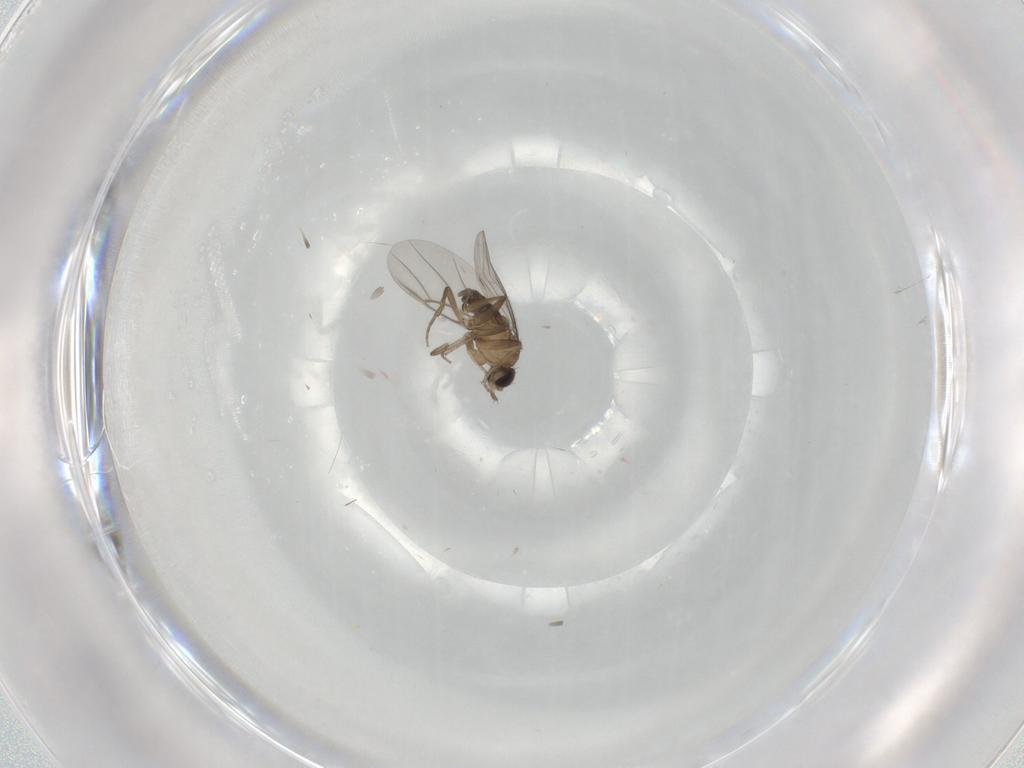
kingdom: Animalia
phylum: Arthropoda
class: Insecta
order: Diptera
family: Phoridae
